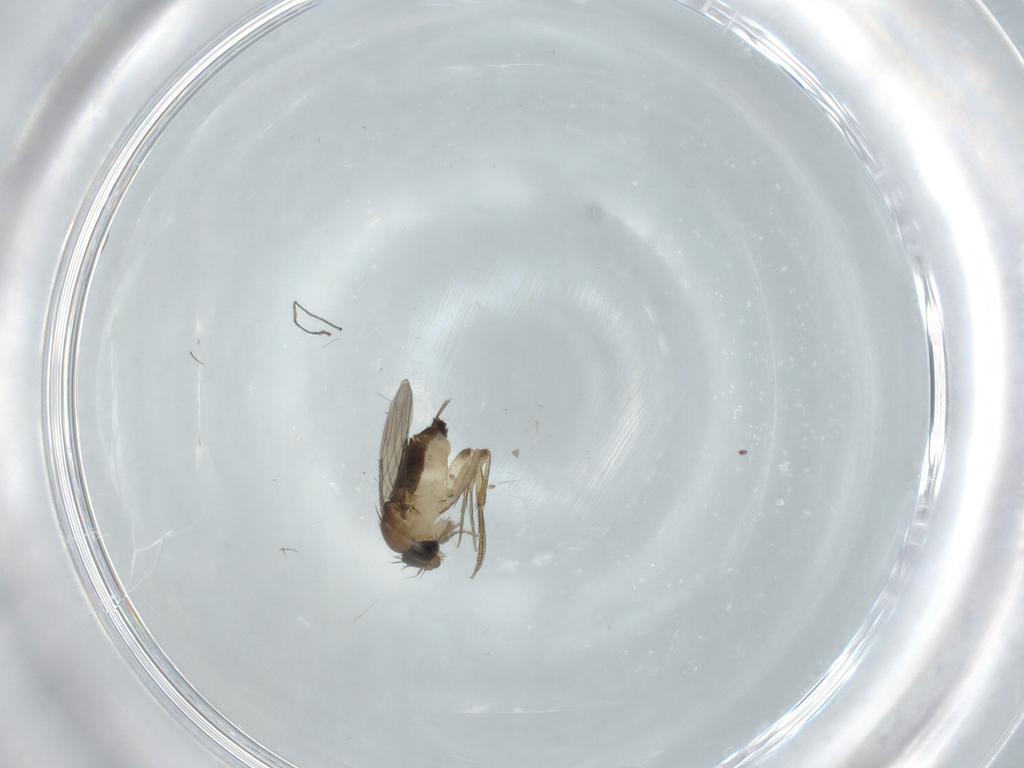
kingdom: Animalia
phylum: Arthropoda
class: Insecta
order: Diptera
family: Phoridae
